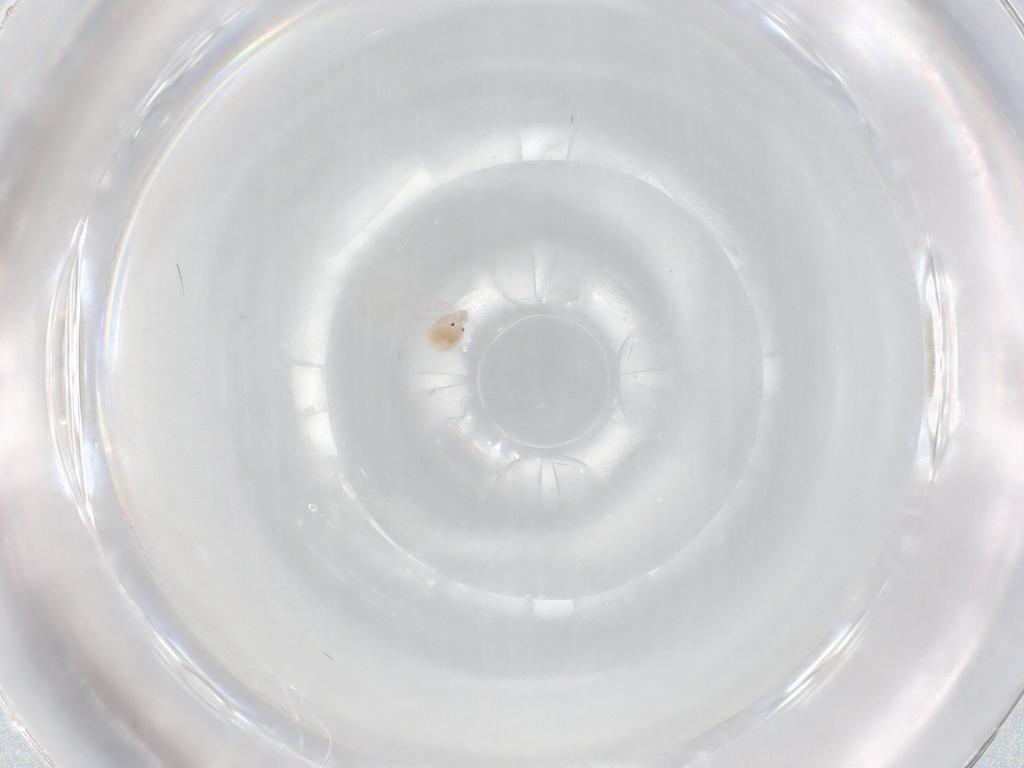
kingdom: Animalia
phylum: Arthropoda
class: Arachnida
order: Trombidiformes
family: Lebertiidae
